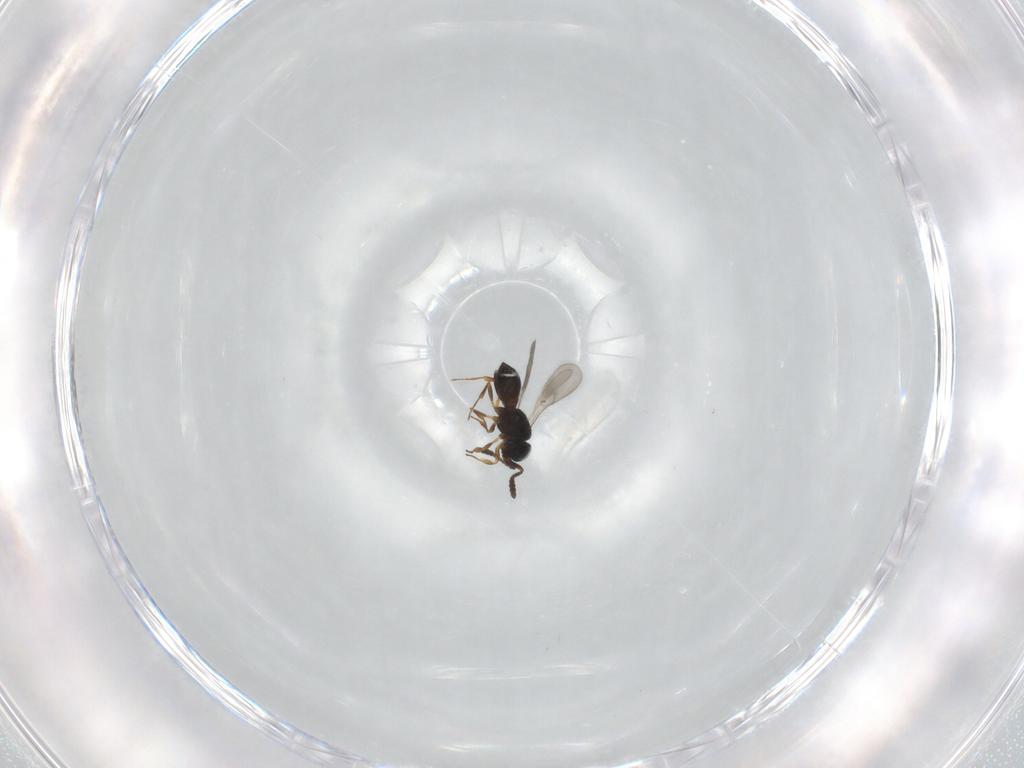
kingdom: Animalia
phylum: Arthropoda
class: Insecta
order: Hymenoptera
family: Scelionidae
